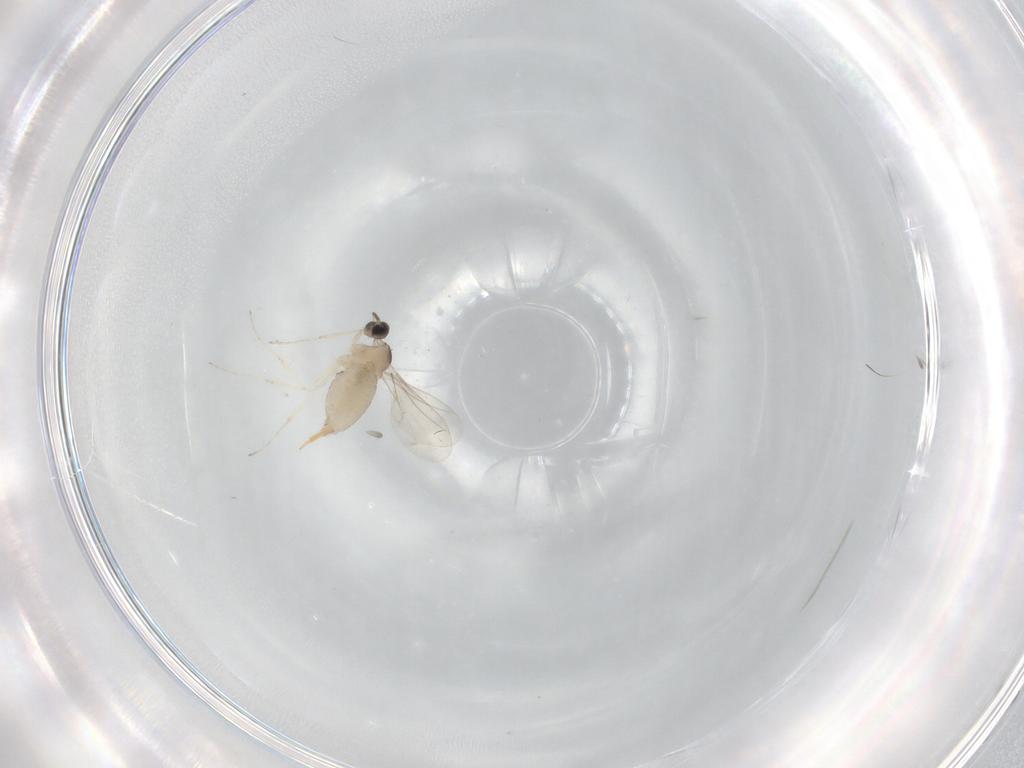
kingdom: Animalia
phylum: Arthropoda
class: Insecta
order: Diptera
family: Cecidomyiidae
